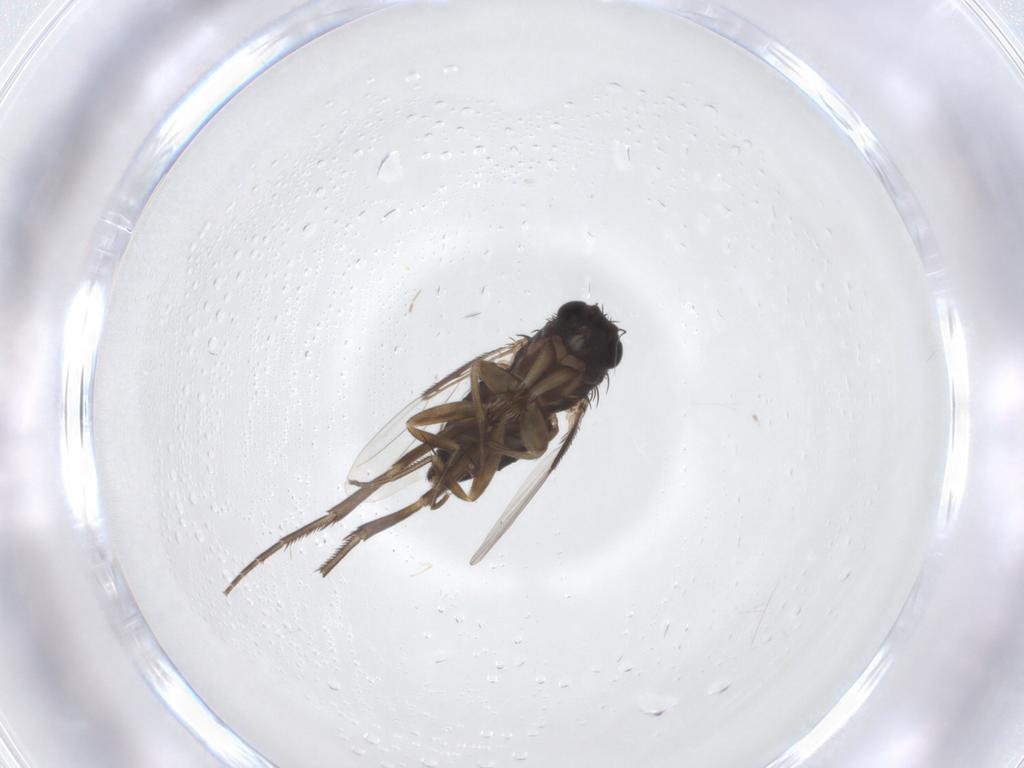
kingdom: Animalia
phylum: Arthropoda
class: Insecta
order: Diptera
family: Phoridae
